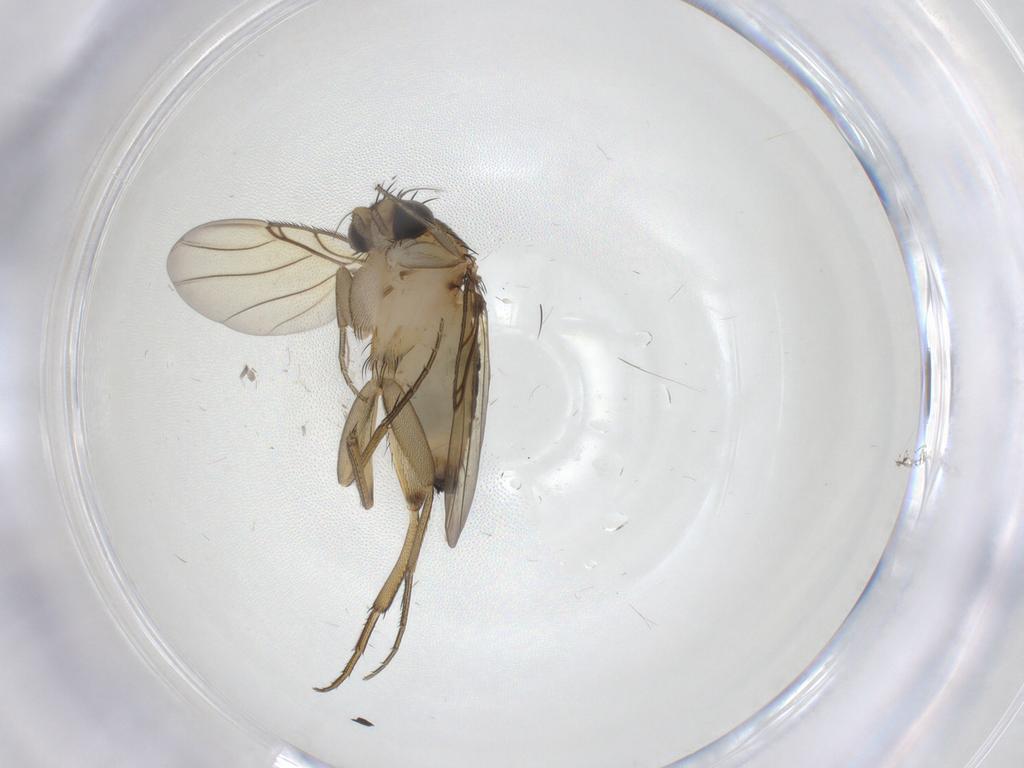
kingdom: Animalia
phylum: Arthropoda
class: Insecta
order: Diptera
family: Phoridae
